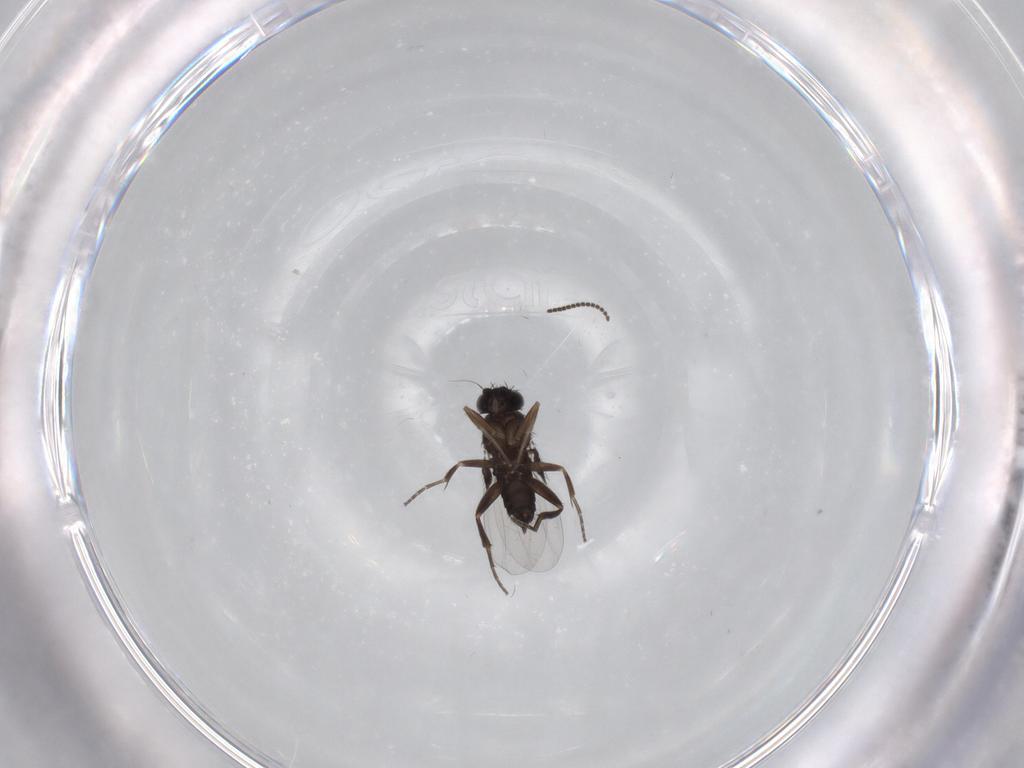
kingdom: Animalia
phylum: Arthropoda
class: Insecta
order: Diptera
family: Phoridae
